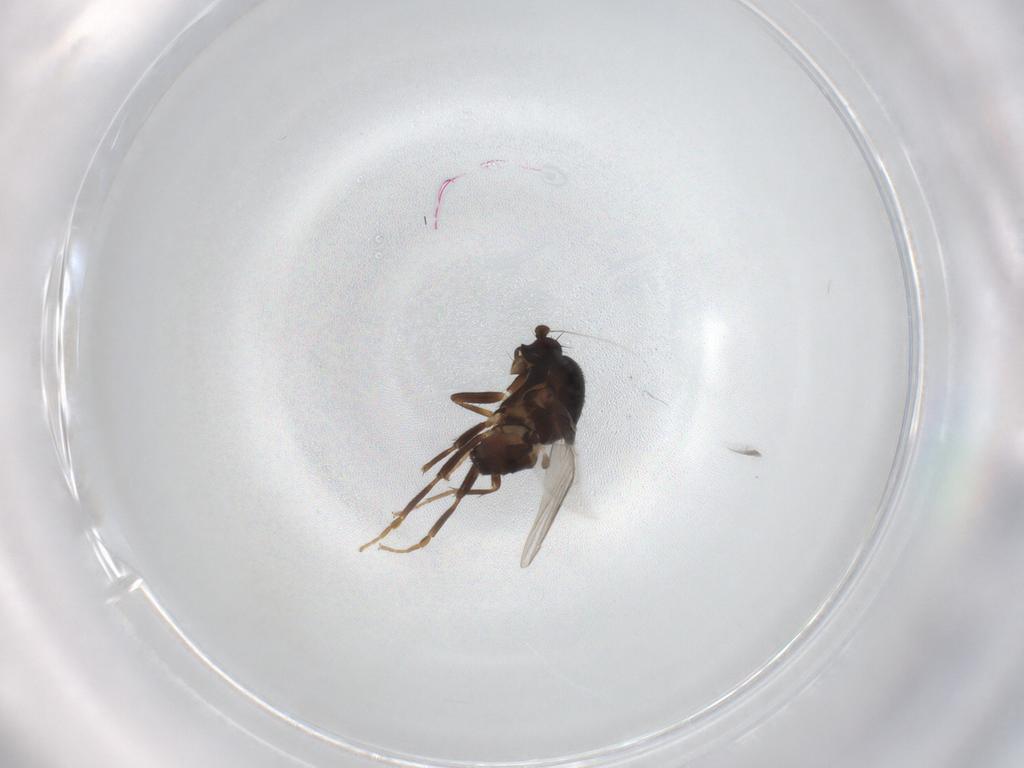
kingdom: Animalia
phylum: Arthropoda
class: Insecta
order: Diptera
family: Sphaeroceridae
